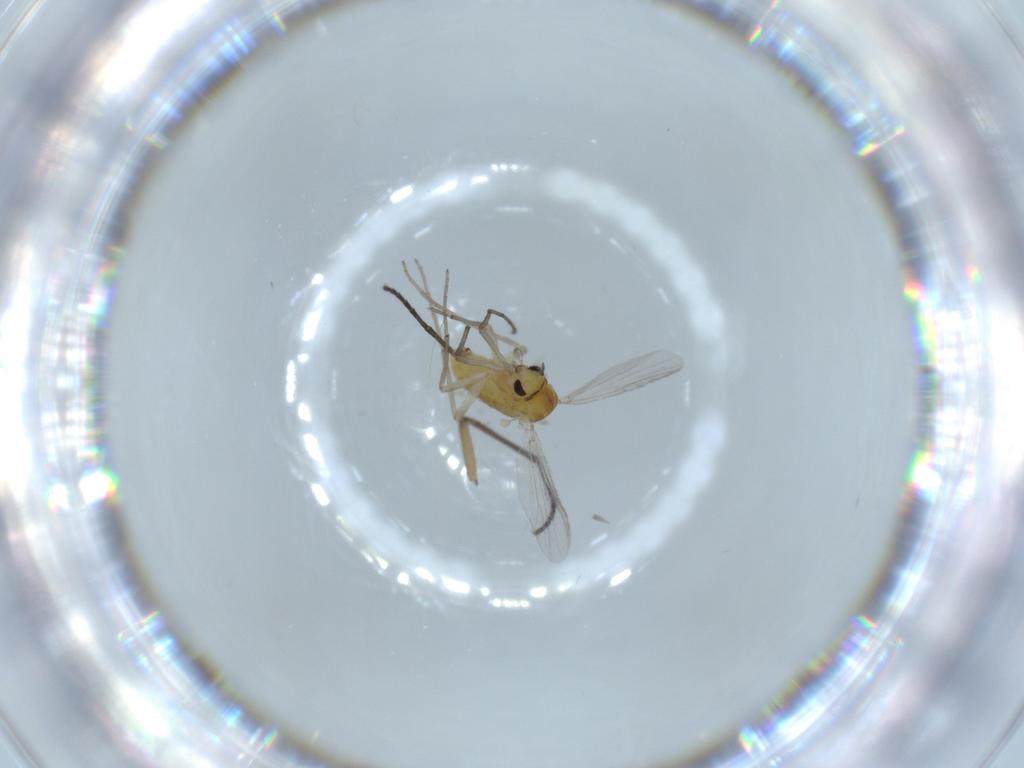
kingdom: Animalia
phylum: Arthropoda
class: Insecta
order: Diptera
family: Chironomidae
